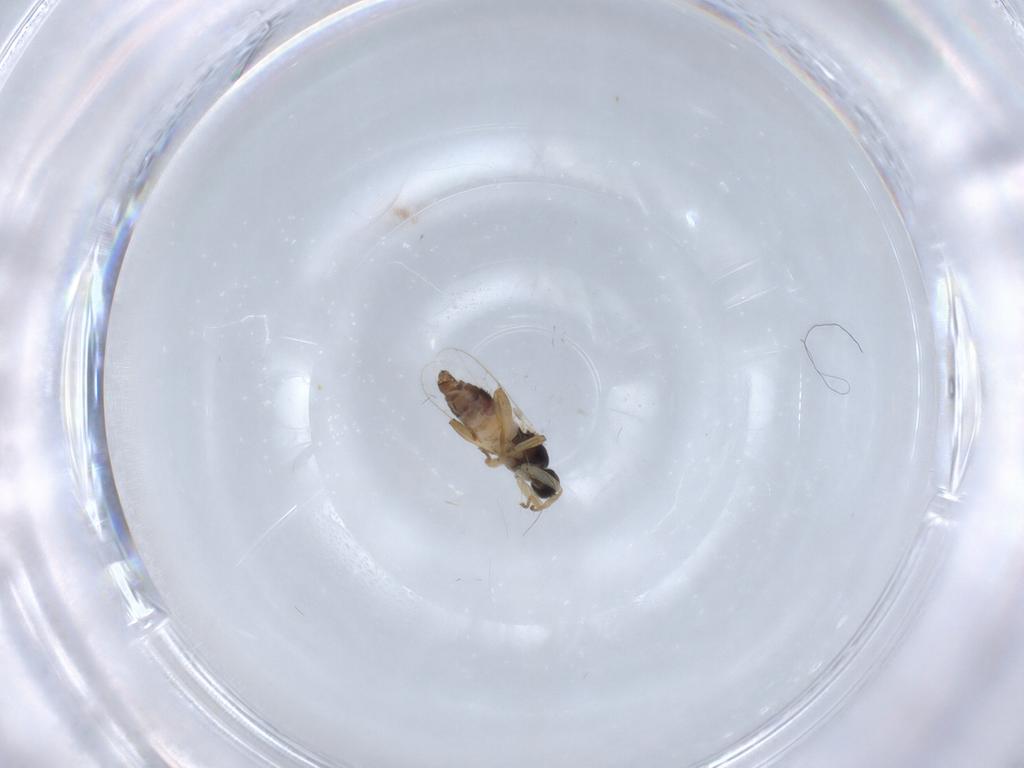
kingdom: Animalia
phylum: Arthropoda
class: Insecta
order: Diptera
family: Hybotidae
